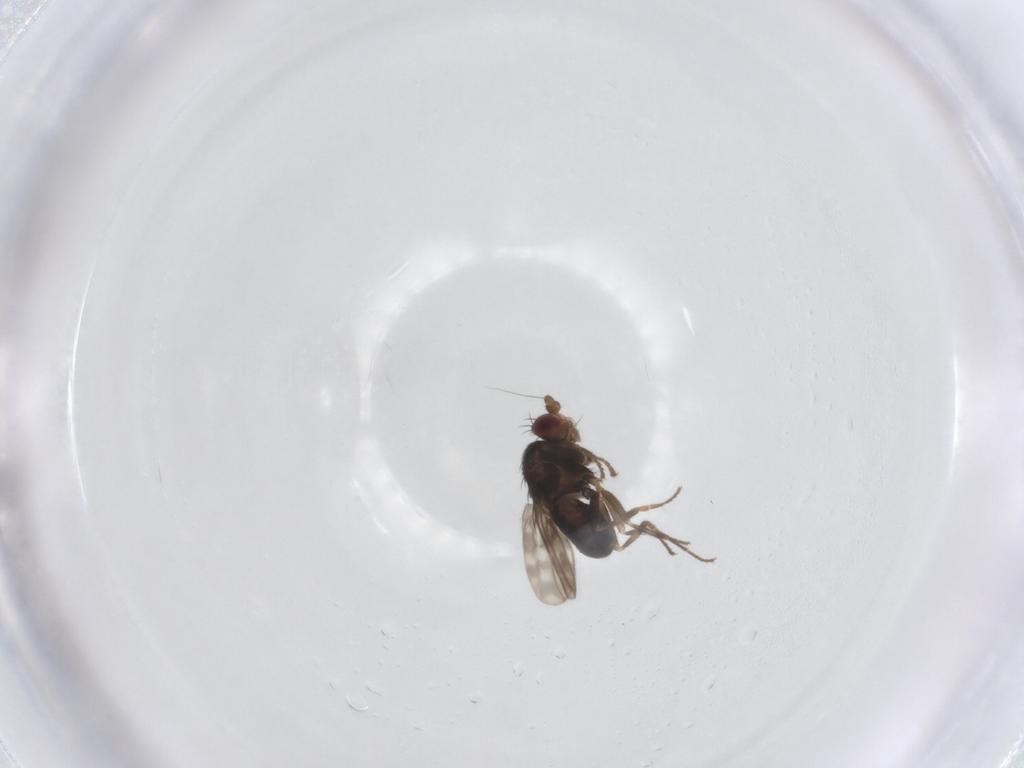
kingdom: Animalia
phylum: Arthropoda
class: Insecta
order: Diptera
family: Sphaeroceridae
